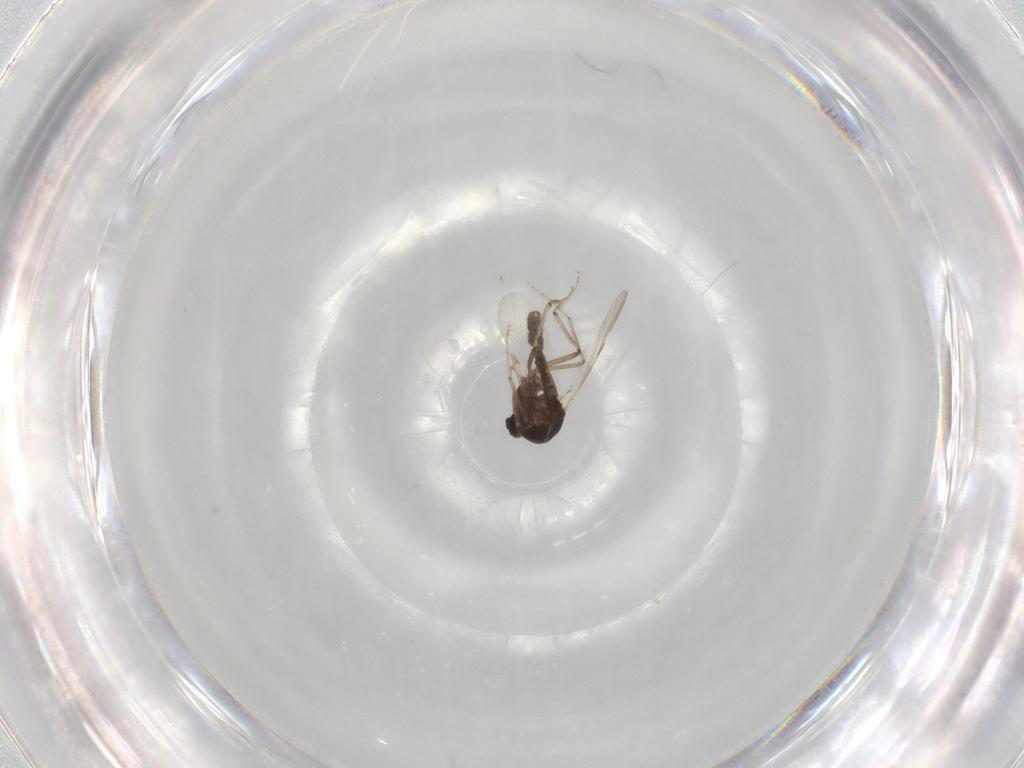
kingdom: Animalia
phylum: Arthropoda
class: Insecta
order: Diptera
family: Ceratopogonidae
